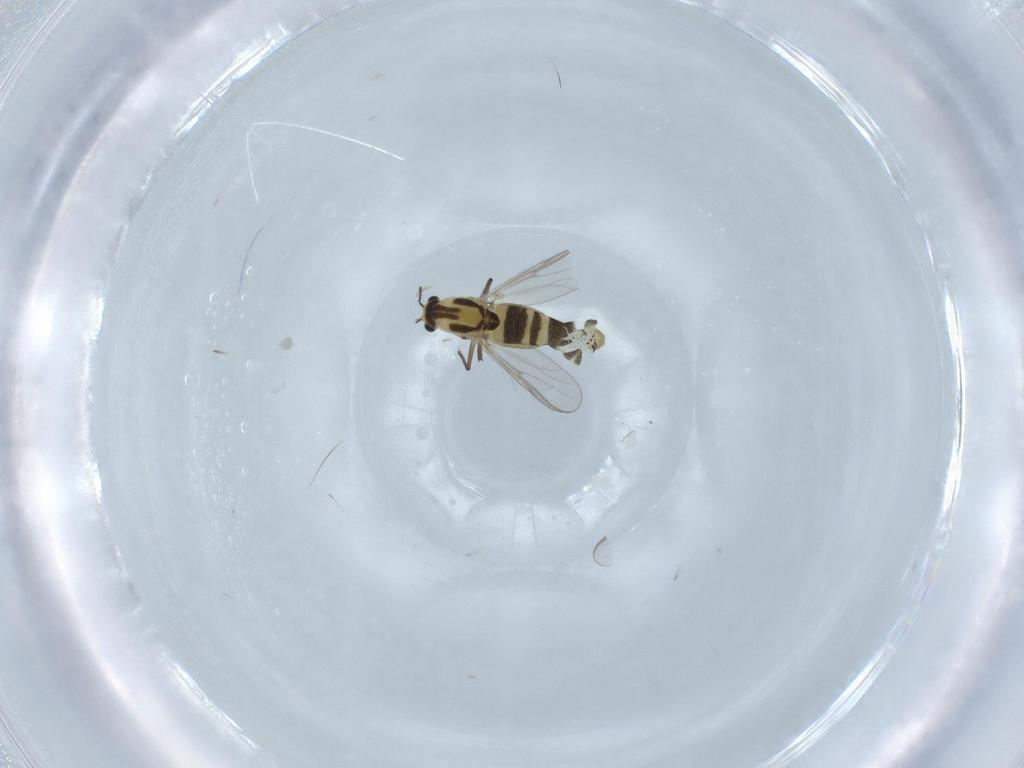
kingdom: Animalia
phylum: Arthropoda
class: Insecta
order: Diptera
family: Chironomidae
